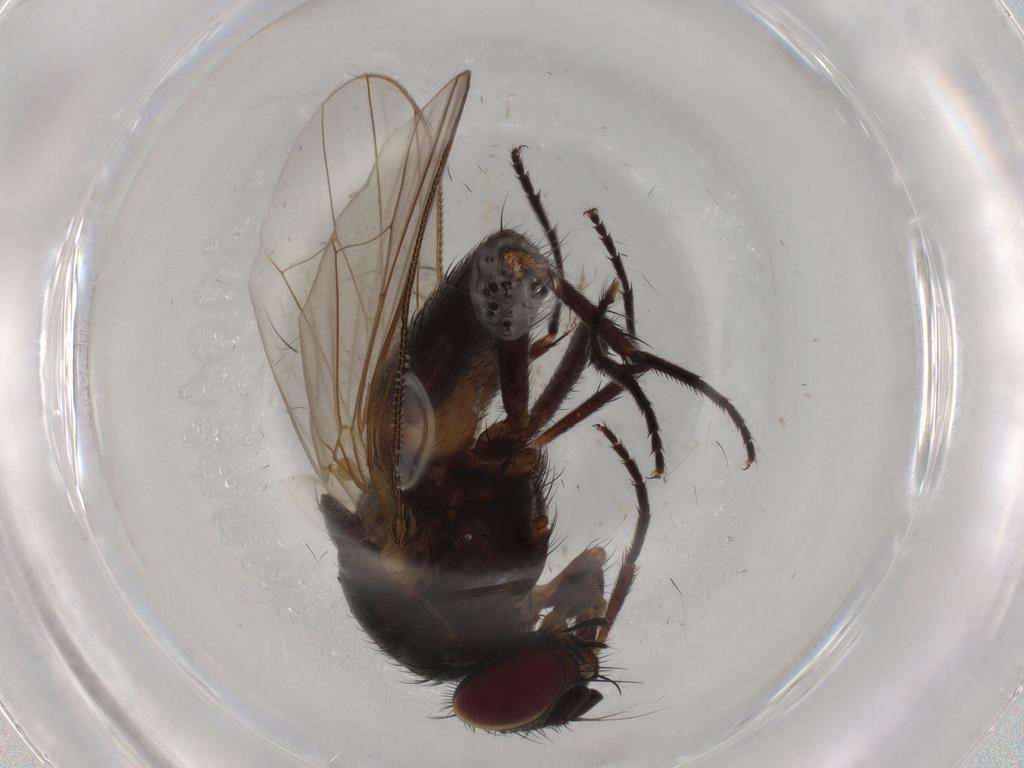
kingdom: Animalia
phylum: Arthropoda
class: Insecta
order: Diptera
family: Fannia
